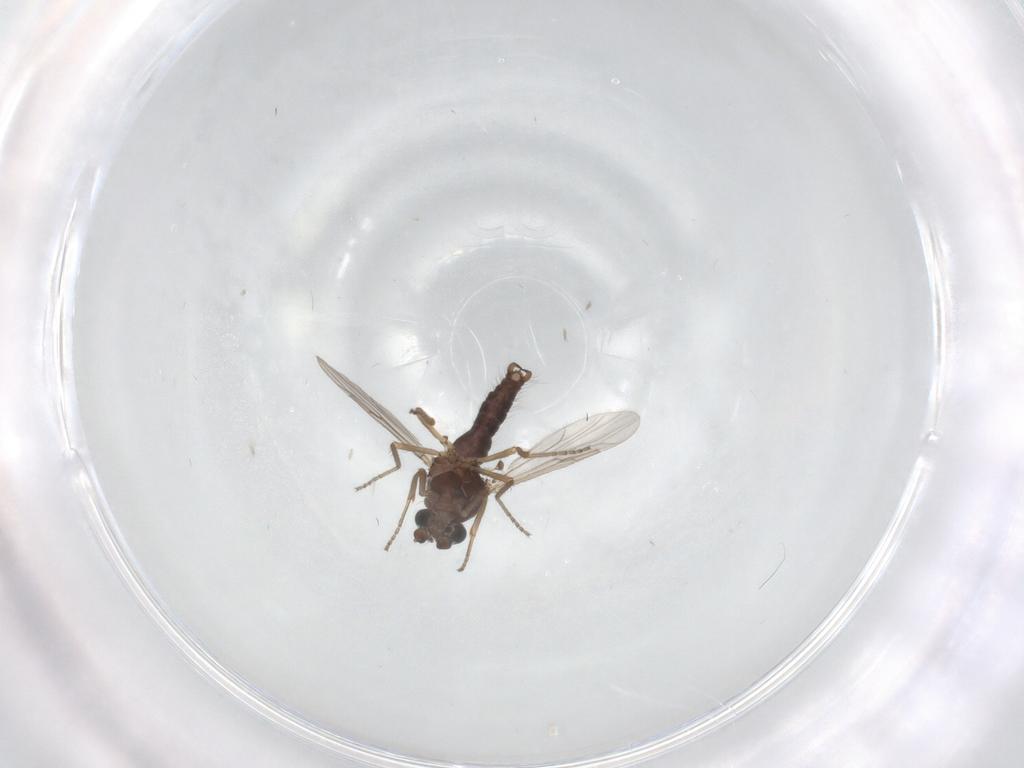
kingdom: Animalia
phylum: Arthropoda
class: Insecta
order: Diptera
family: Ceratopogonidae
